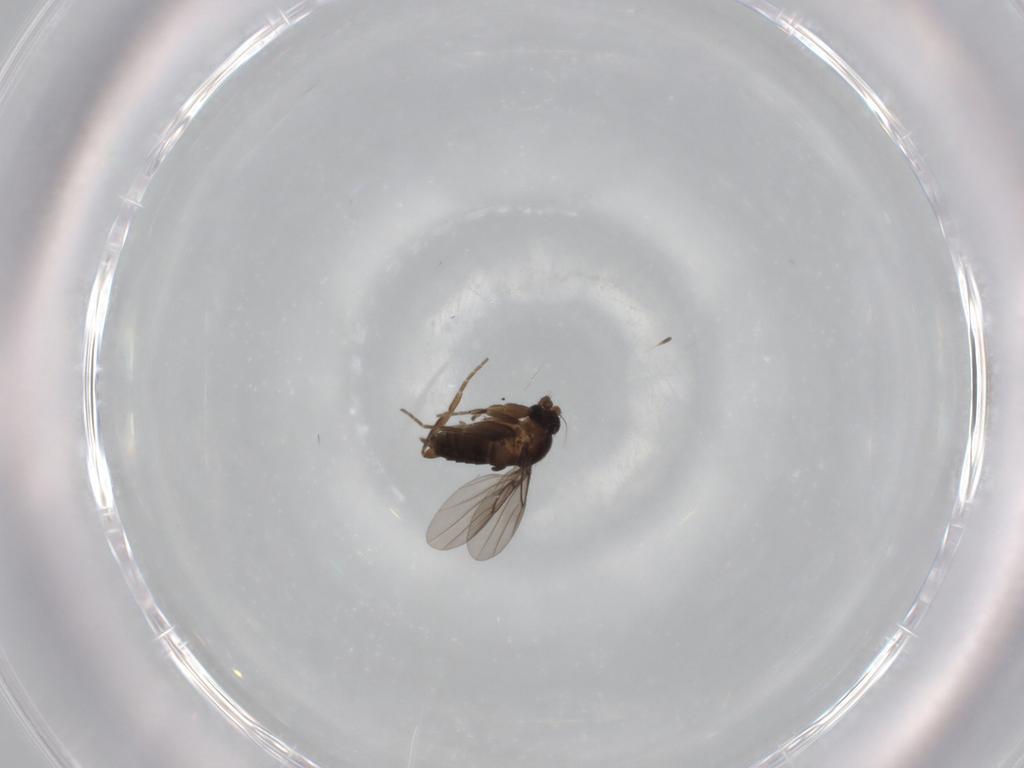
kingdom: Animalia
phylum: Arthropoda
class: Insecta
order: Diptera
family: Phoridae
